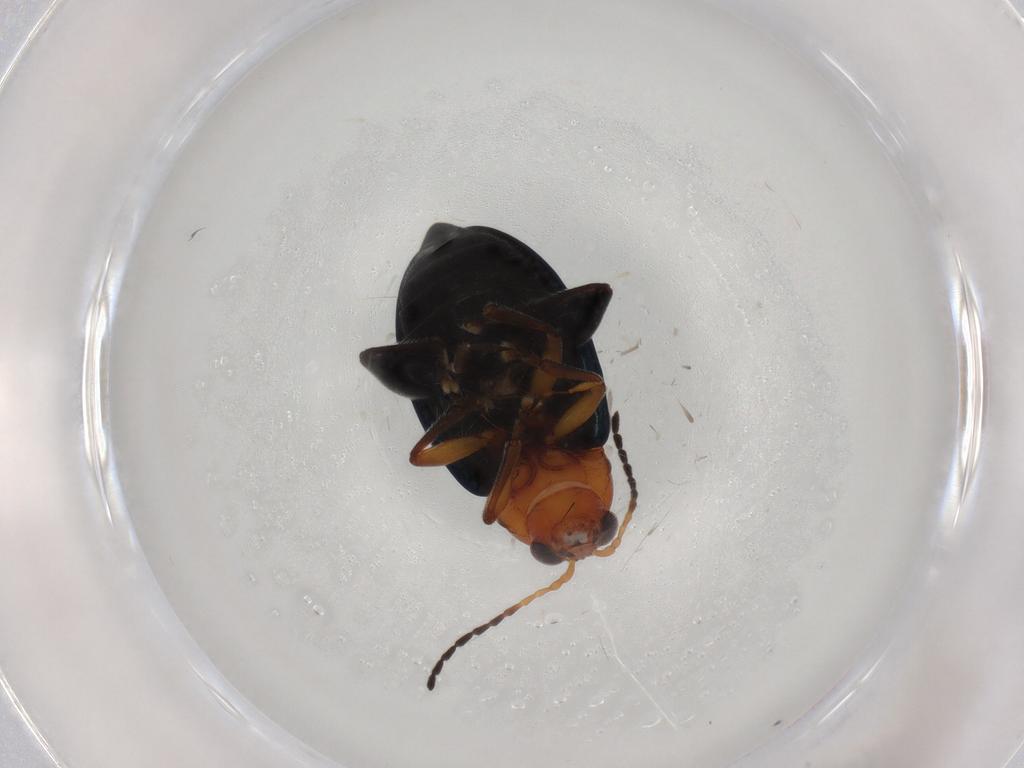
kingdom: Animalia
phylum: Arthropoda
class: Insecta
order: Coleoptera
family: Chrysomelidae
